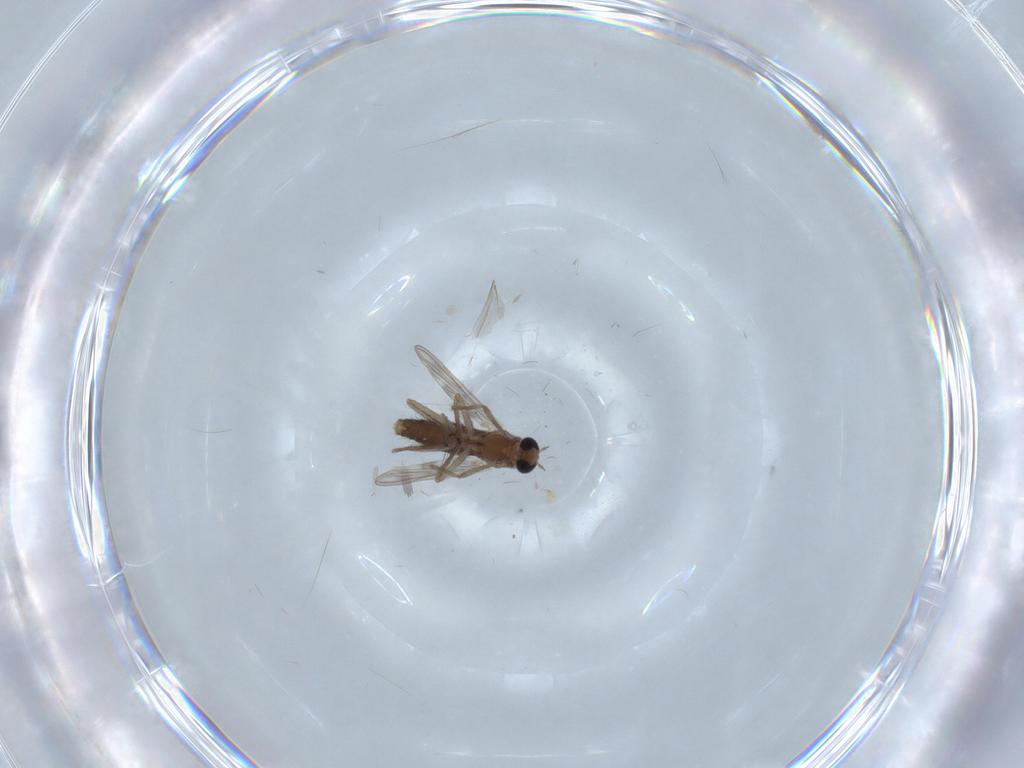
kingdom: Animalia
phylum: Arthropoda
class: Insecta
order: Diptera
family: Chironomidae
